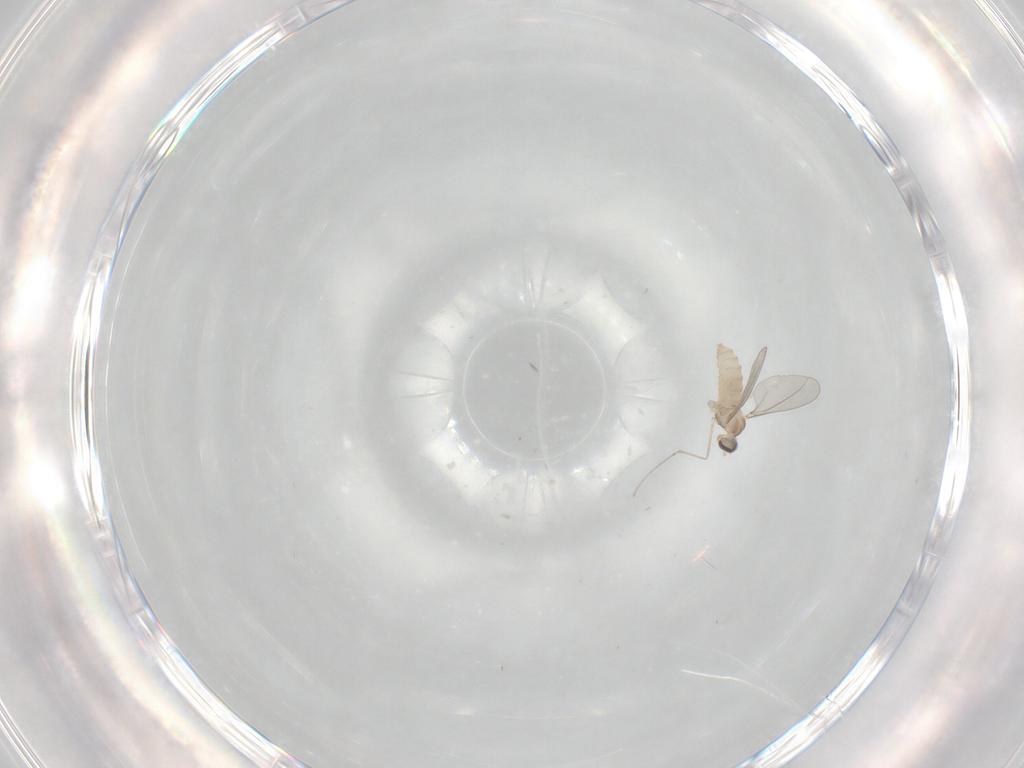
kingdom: Animalia
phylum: Arthropoda
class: Insecta
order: Diptera
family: Cecidomyiidae
